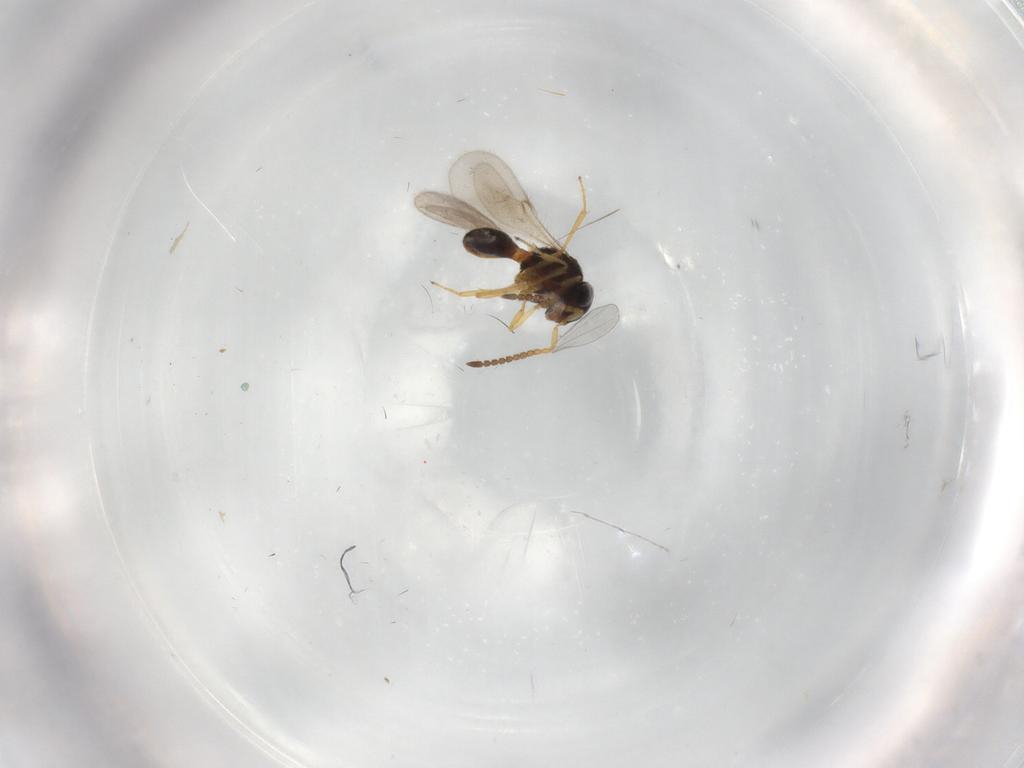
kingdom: Animalia
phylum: Arthropoda
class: Insecta
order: Hymenoptera
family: Scelionidae
